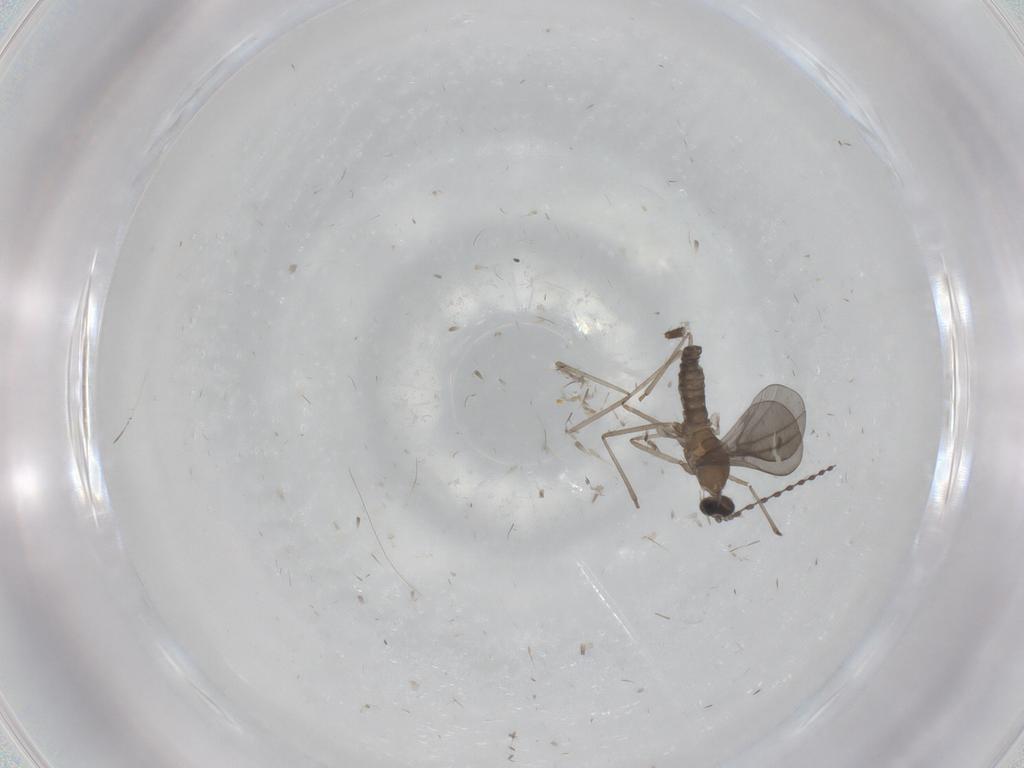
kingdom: Animalia
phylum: Arthropoda
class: Insecta
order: Diptera
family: Cecidomyiidae
